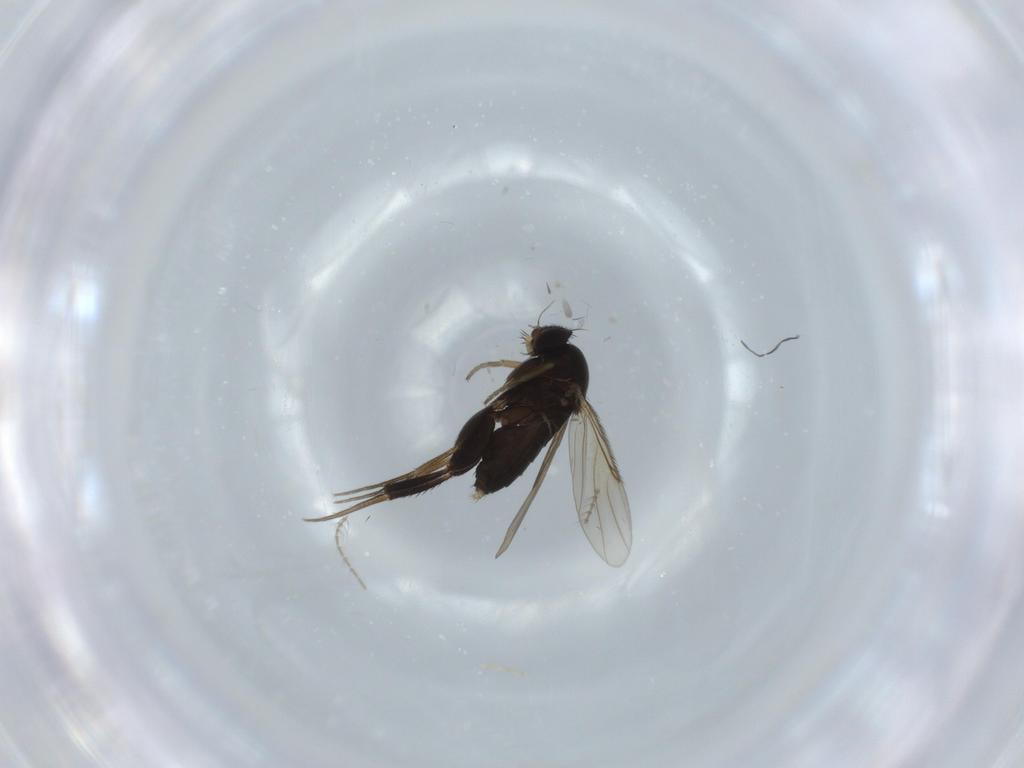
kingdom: Animalia
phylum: Arthropoda
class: Insecta
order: Diptera
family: Phoridae
